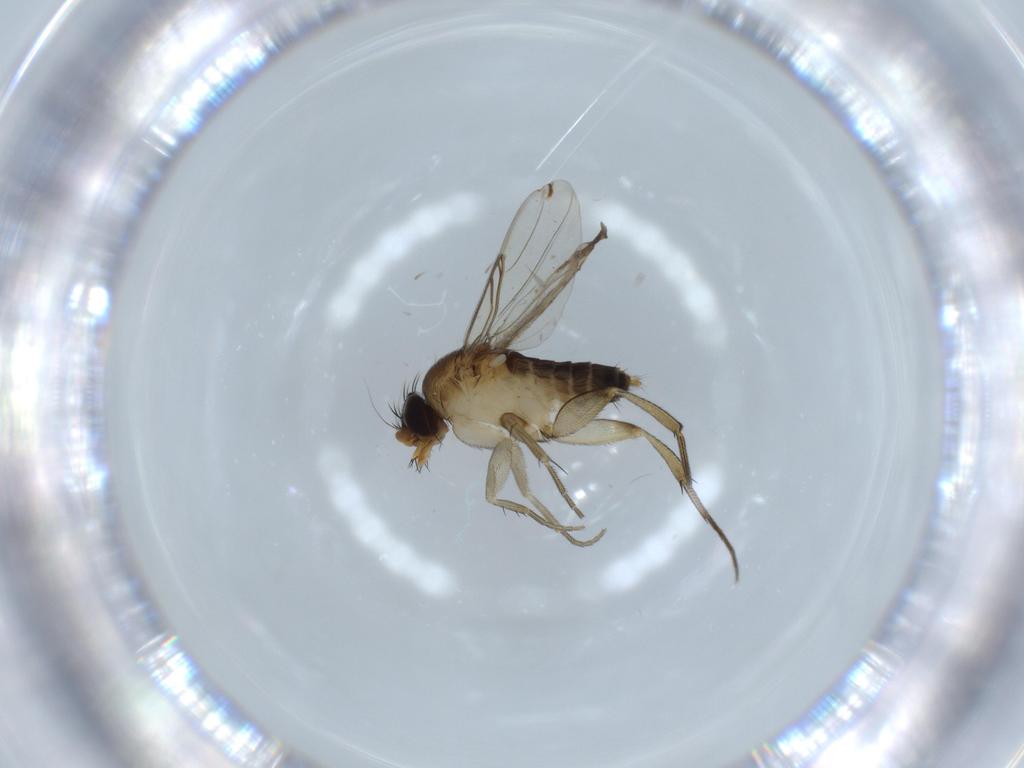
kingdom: Animalia
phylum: Arthropoda
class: Insecta
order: Diptera
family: Phoridae
